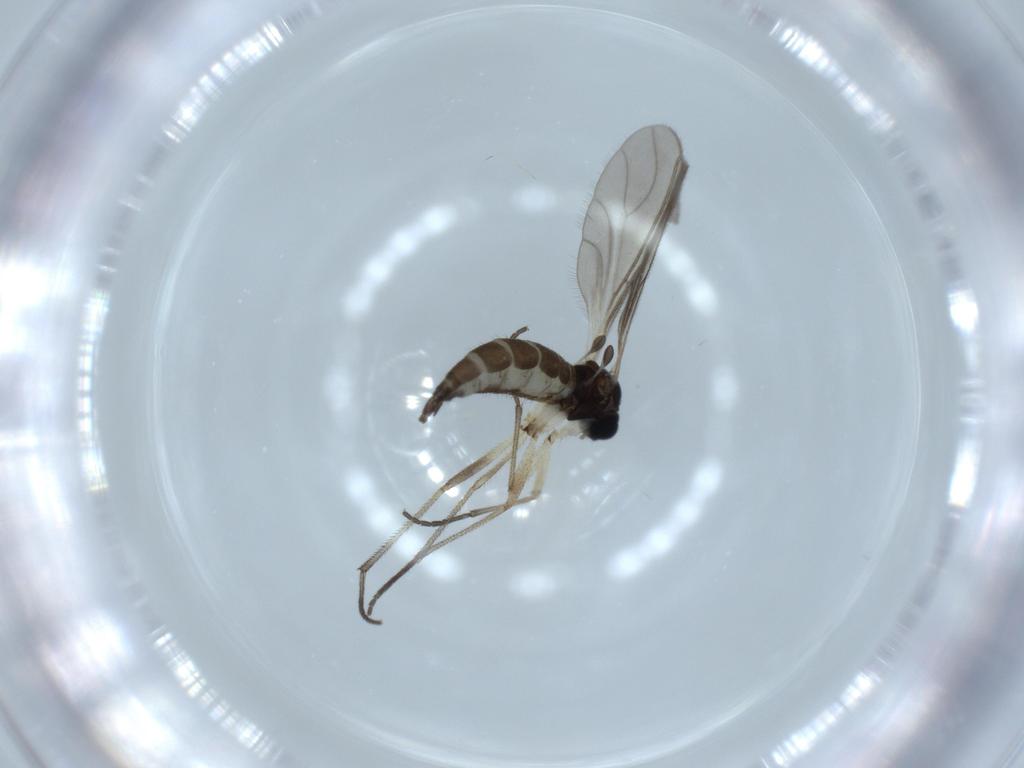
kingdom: Animalia
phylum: Arthropoda
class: Insecta
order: Diptera
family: Sciaridae
